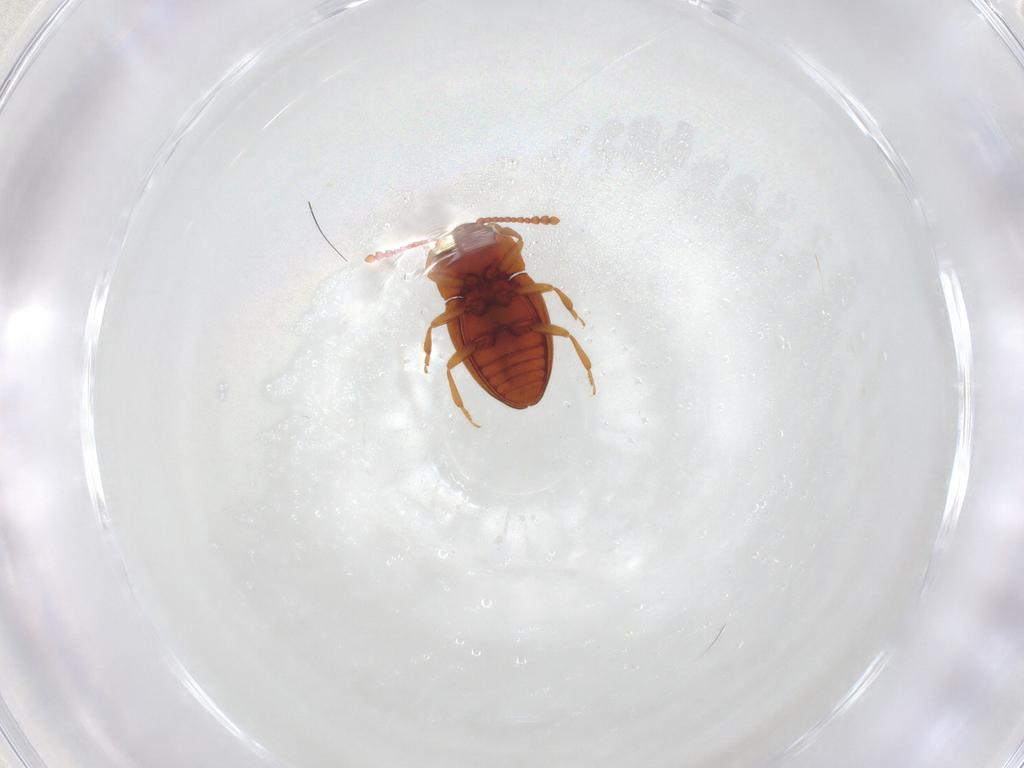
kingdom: Animalia
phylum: Arthropoda
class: Insecta
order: Coleoptera
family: Erotylidae
